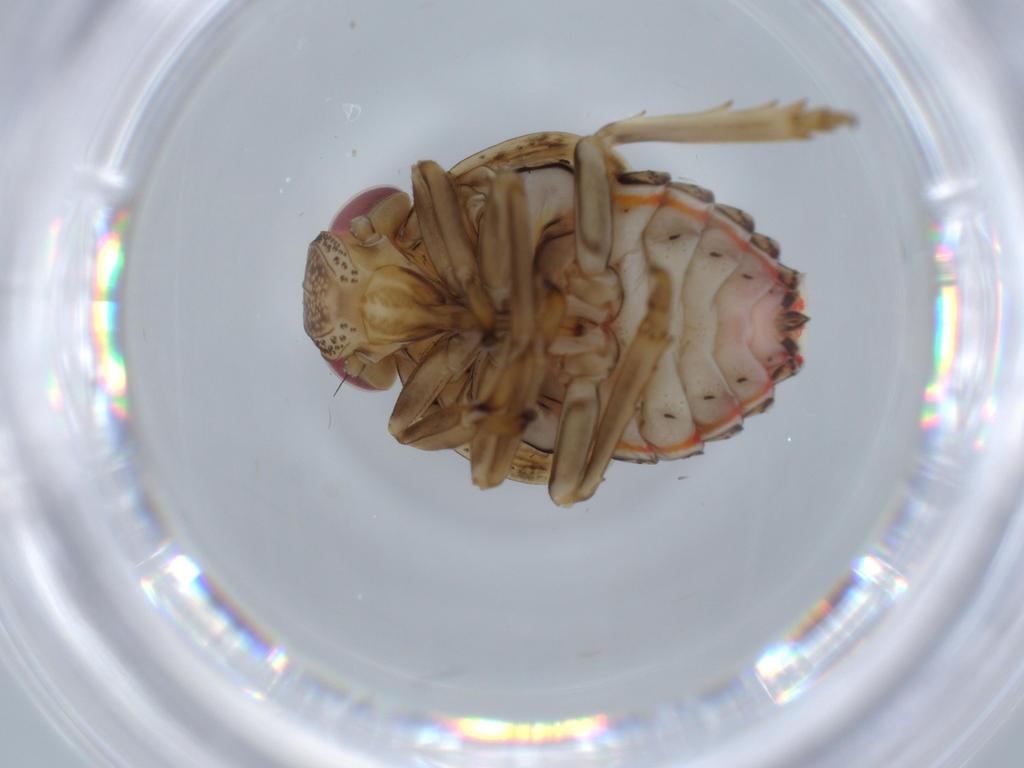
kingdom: Animalia
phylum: Arthropoda
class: Insecta
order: Hemiptera
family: Issidae
